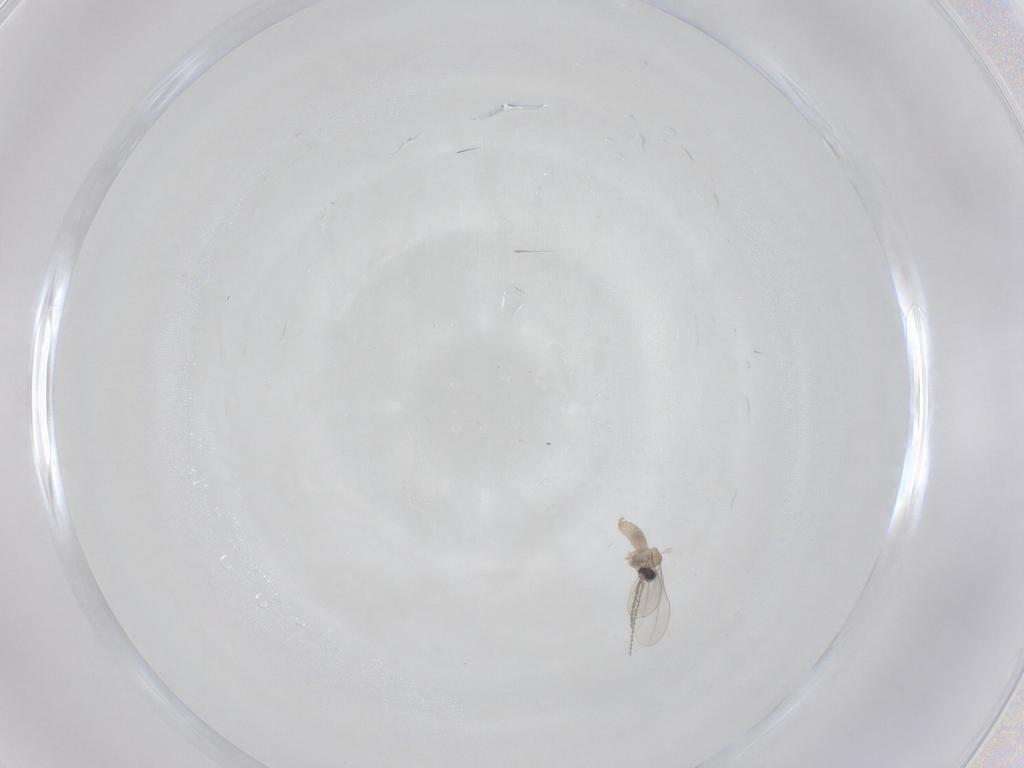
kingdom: Animalia
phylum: Arthropoda
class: Insecta
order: Diptera
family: Cecidomyiidae
